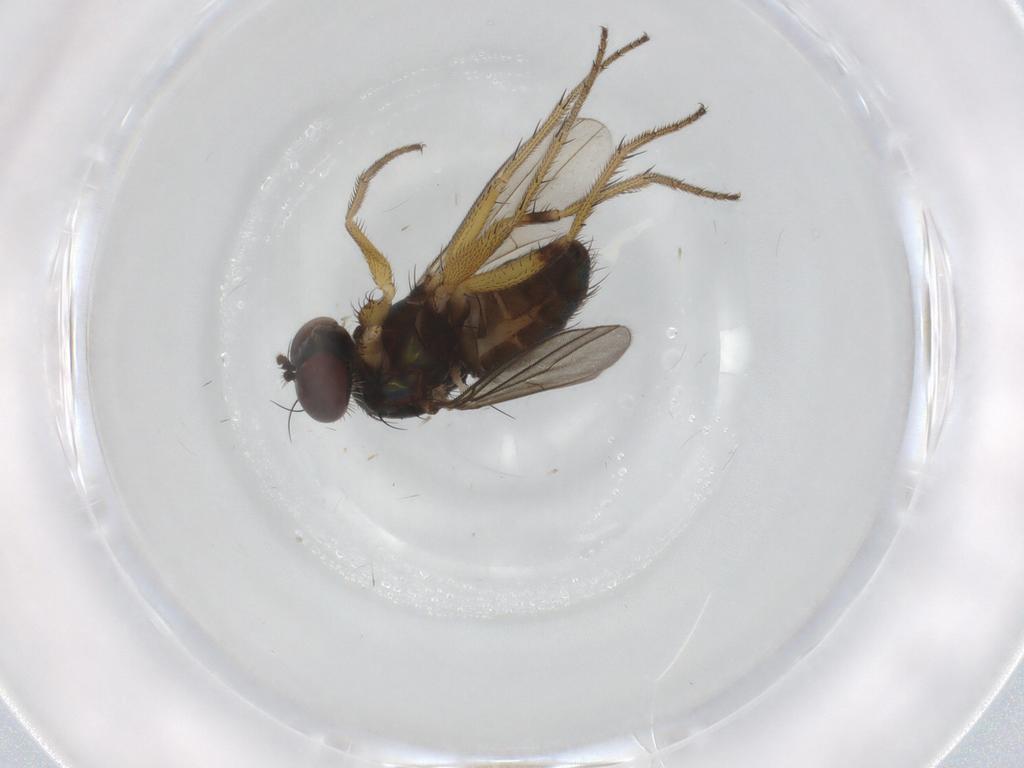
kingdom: Animalia
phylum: Arthropoda
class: Insecta
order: Diptera
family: Dolichopodidae
